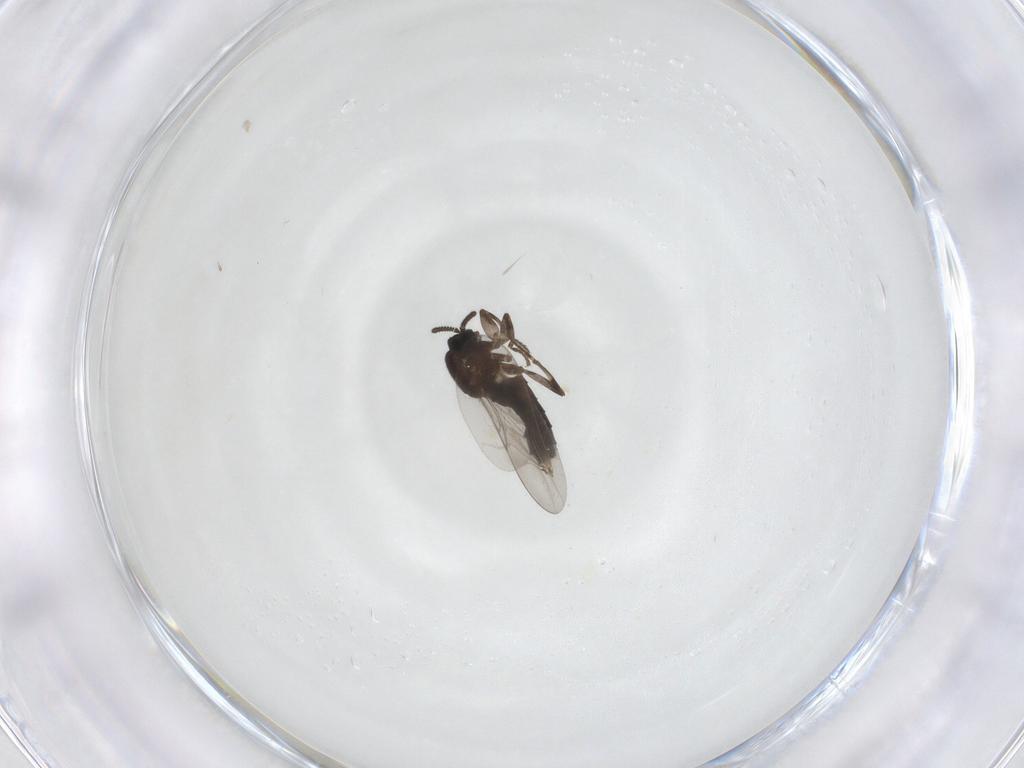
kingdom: Animalia
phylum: Arthropoda
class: Insecta
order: Diptera
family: Scatopsidae
